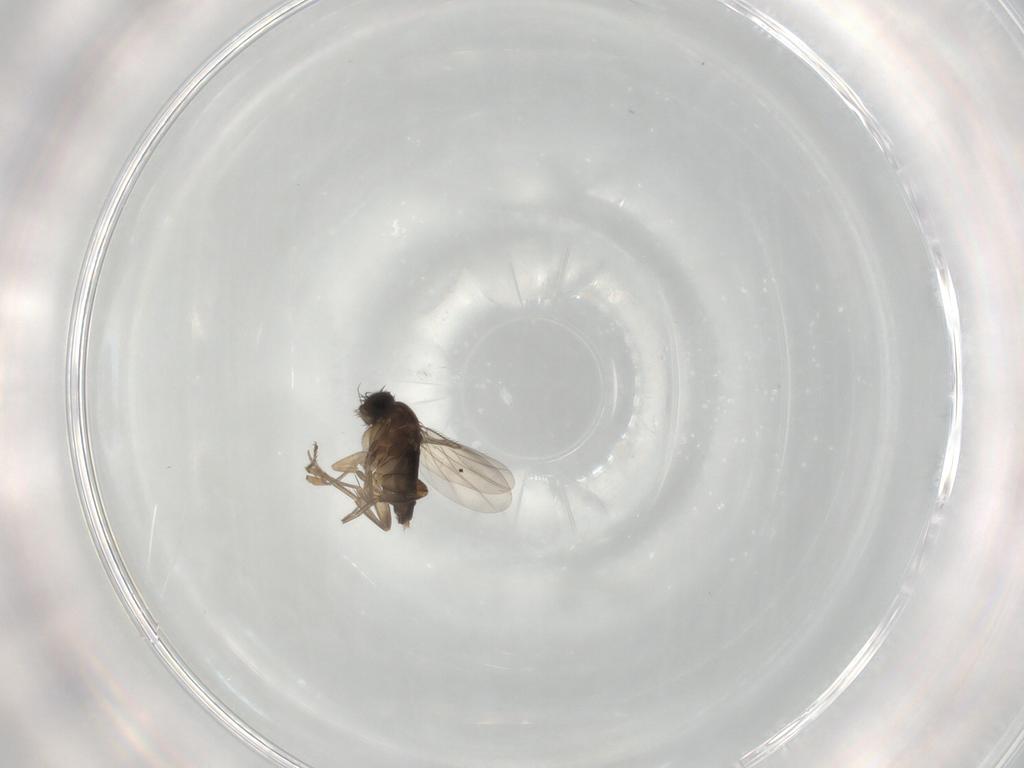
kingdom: Animalia
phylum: Arthropoda
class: Insecta
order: Diptera
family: Phoridae
